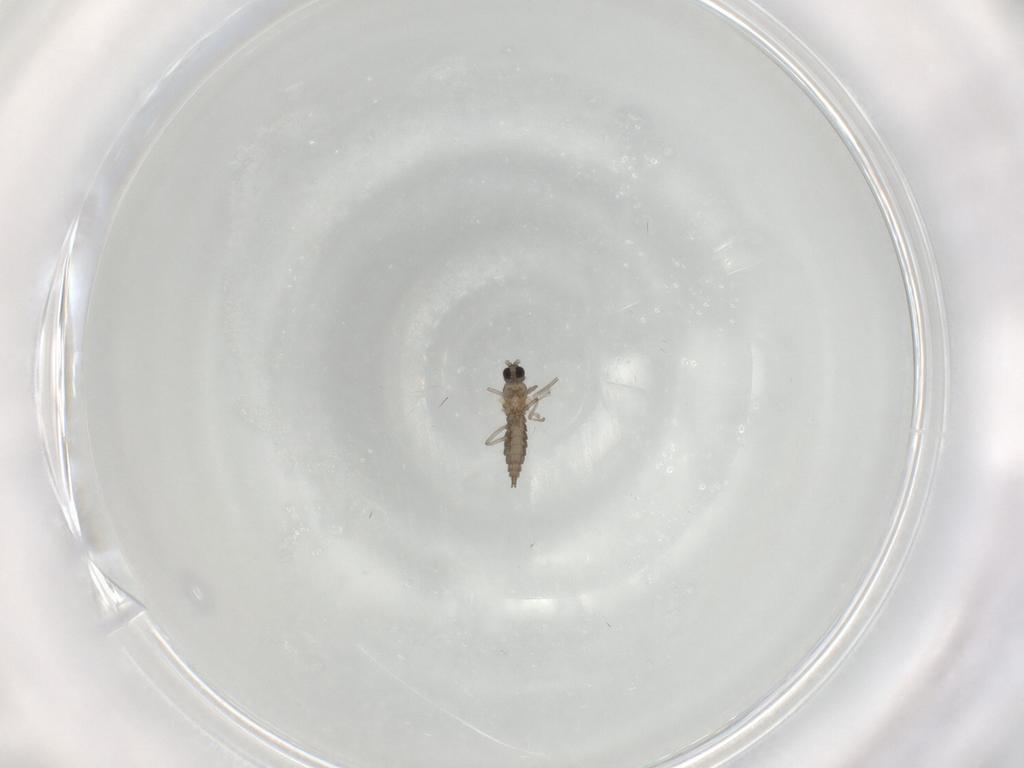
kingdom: Animalia
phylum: Arthropoda
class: Insecta
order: Diptera
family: Cecidomyiidae
